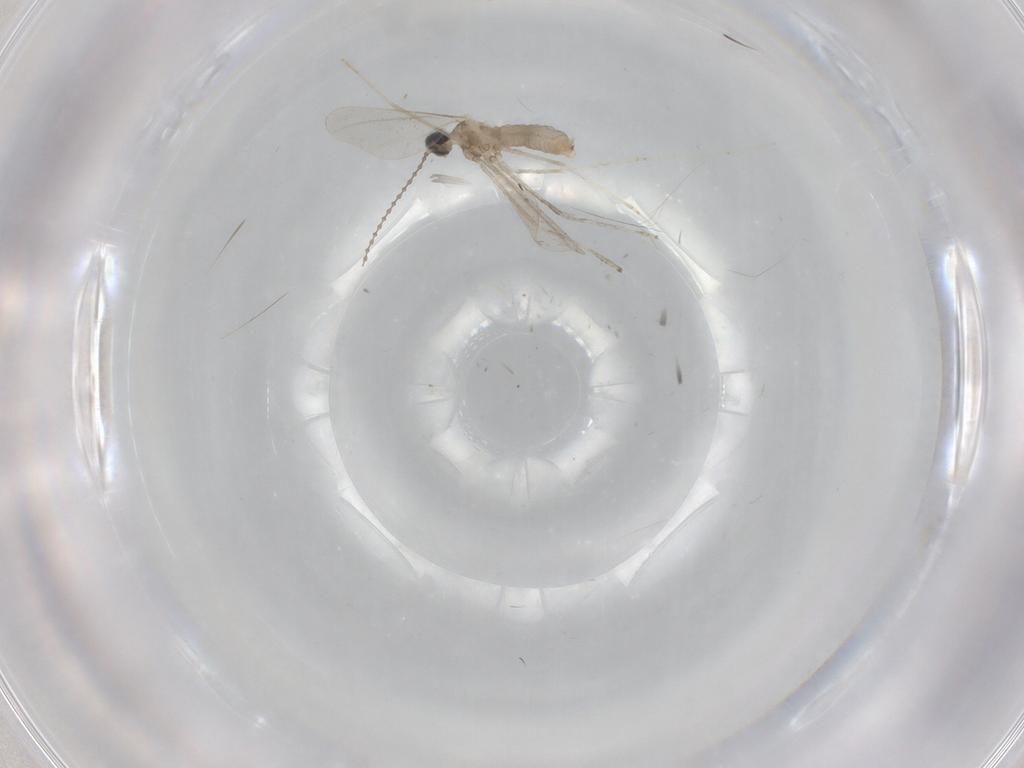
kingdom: Animalia
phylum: Arthropoda
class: Insecta
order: Diptera
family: Cecidomyiidae
